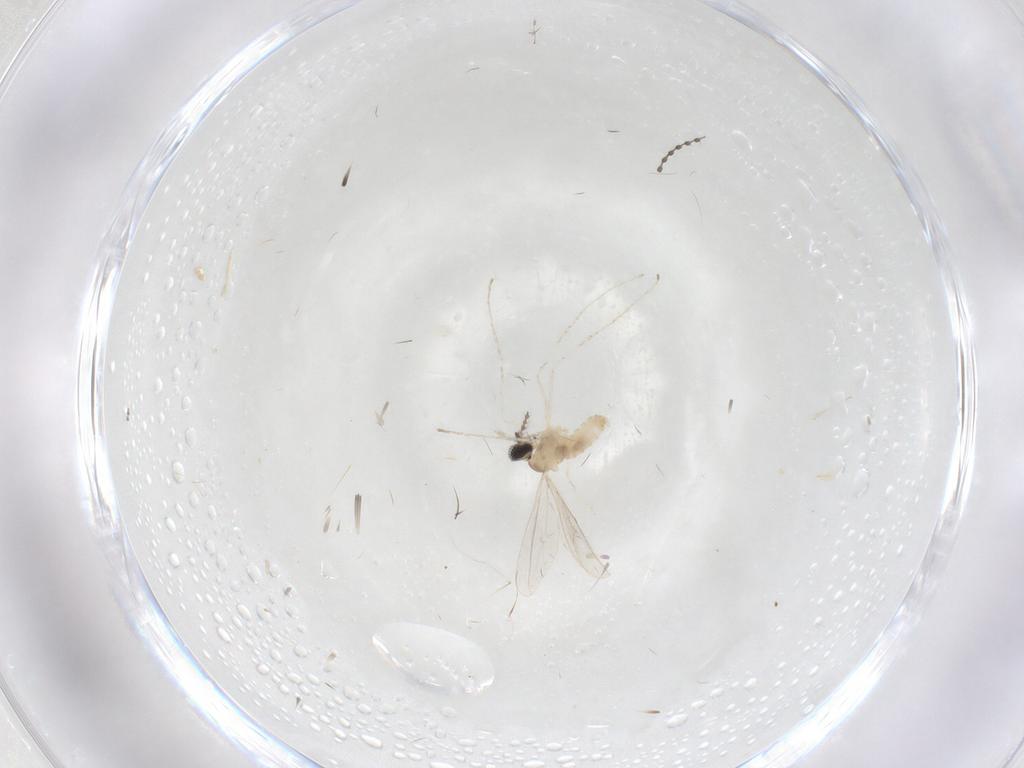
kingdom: Animalia
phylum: Arthropoda
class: Insecta
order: Diptera
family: Cecidomyiidae
